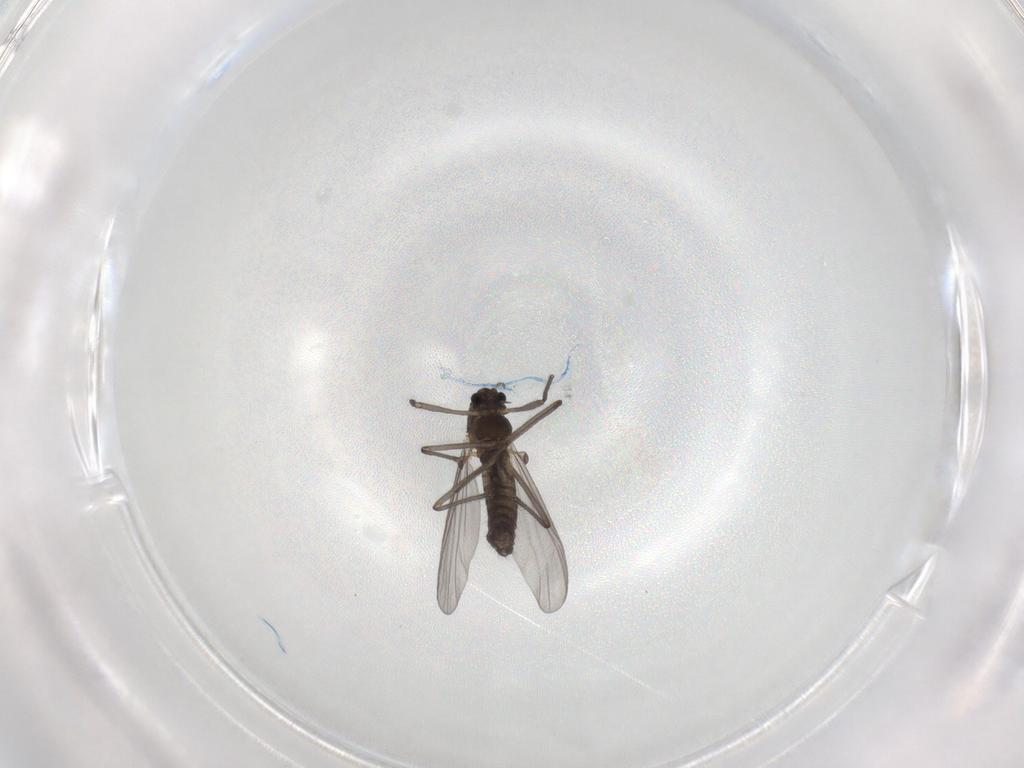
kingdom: Animalia
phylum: Arthropoda
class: Insecta
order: Diptera
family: Chironomidae
